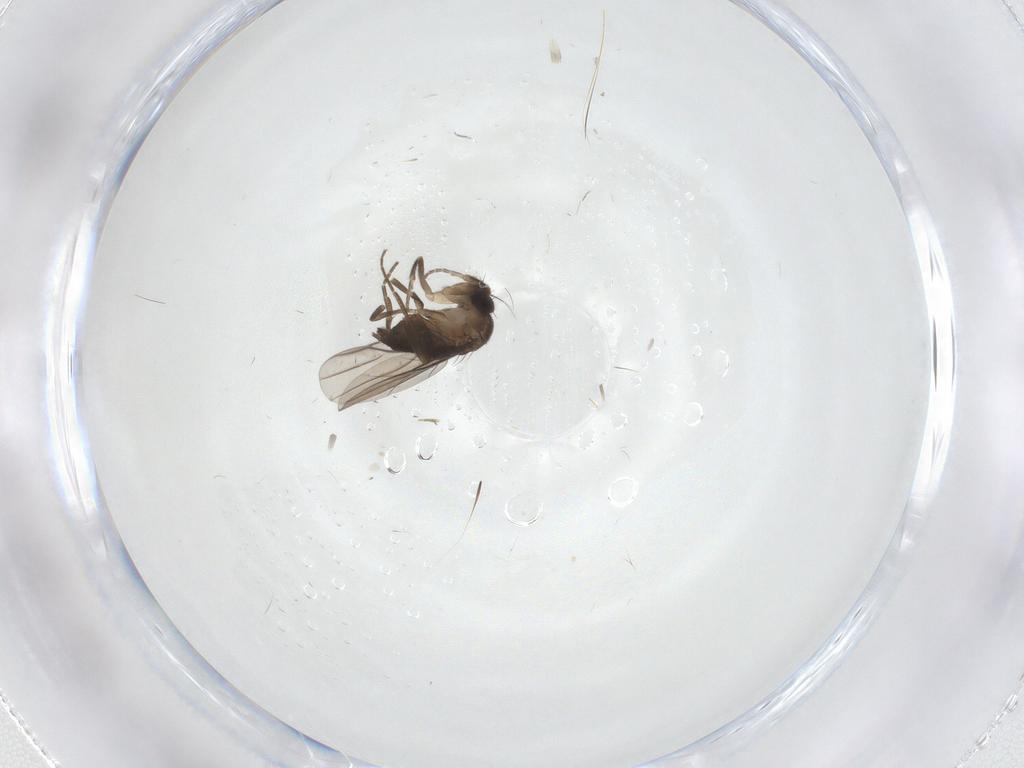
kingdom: Animalia
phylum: Arthropoda
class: Insecta
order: Diptera
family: Phoridae
